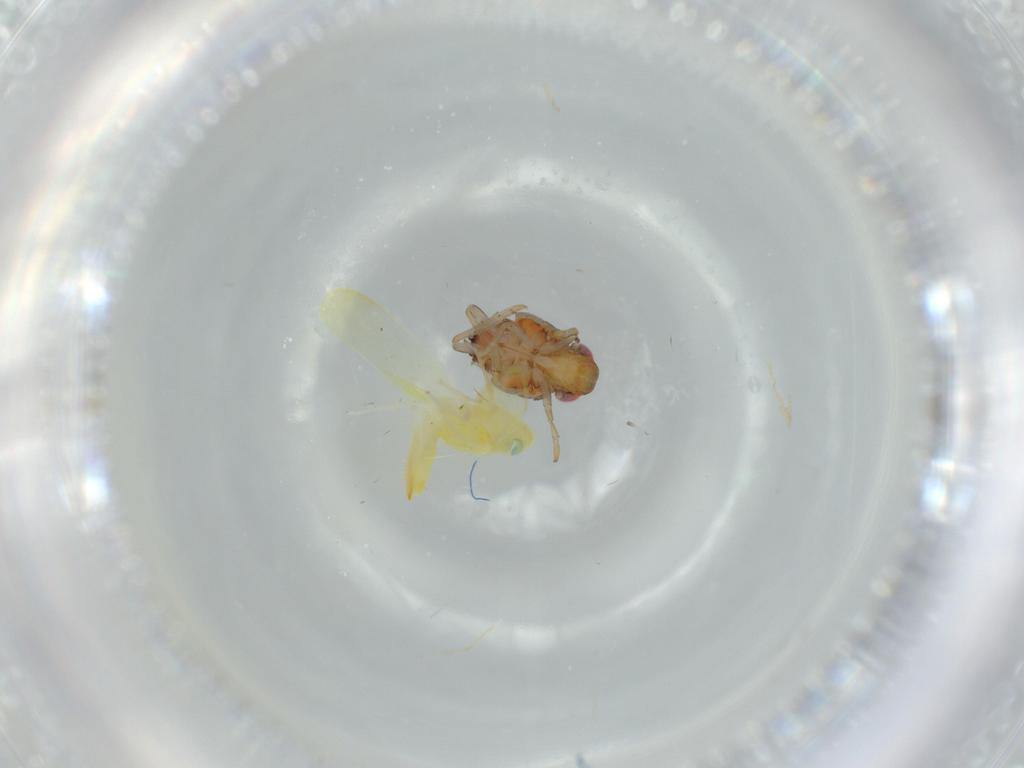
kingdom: Animalia
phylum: Arthropoda
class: Insecta
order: Hemiptera
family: Issidae
